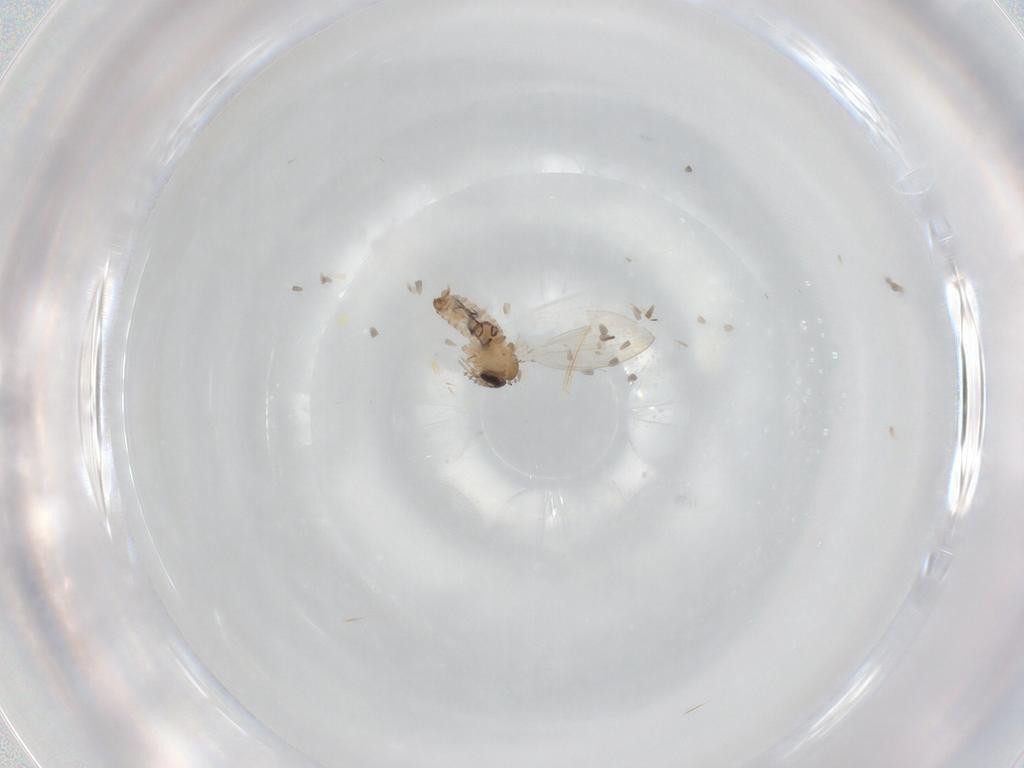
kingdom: Animalia
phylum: Arthropoda
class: Insecta
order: Diptera
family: Psychodidae
